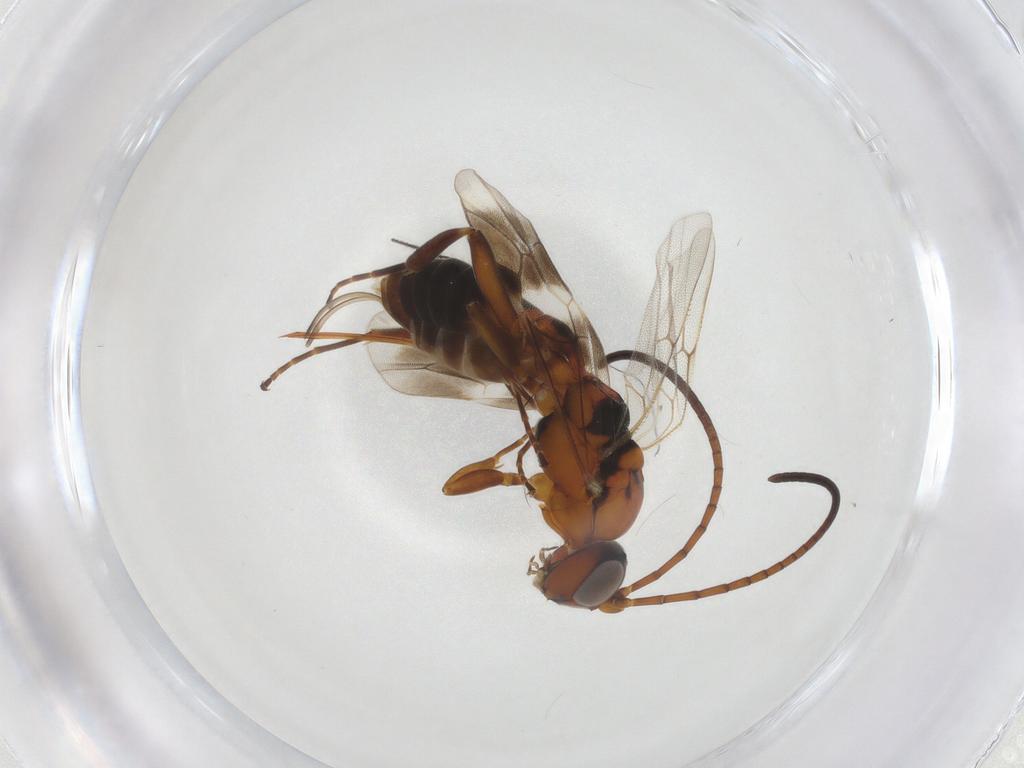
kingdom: Animalia
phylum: Arthropoda
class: Insecta
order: Hymenoptera
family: Ichneumonidae
